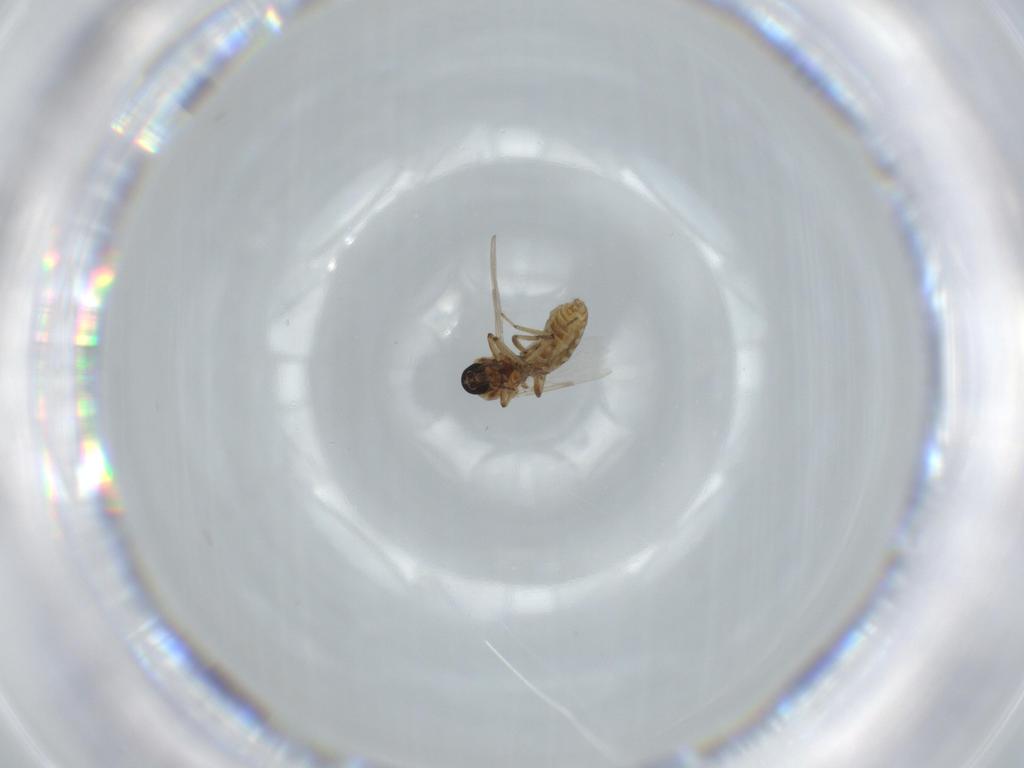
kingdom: Animalia
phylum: Arthropoda
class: Insecta
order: Diptera
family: Ceratopogonidae
